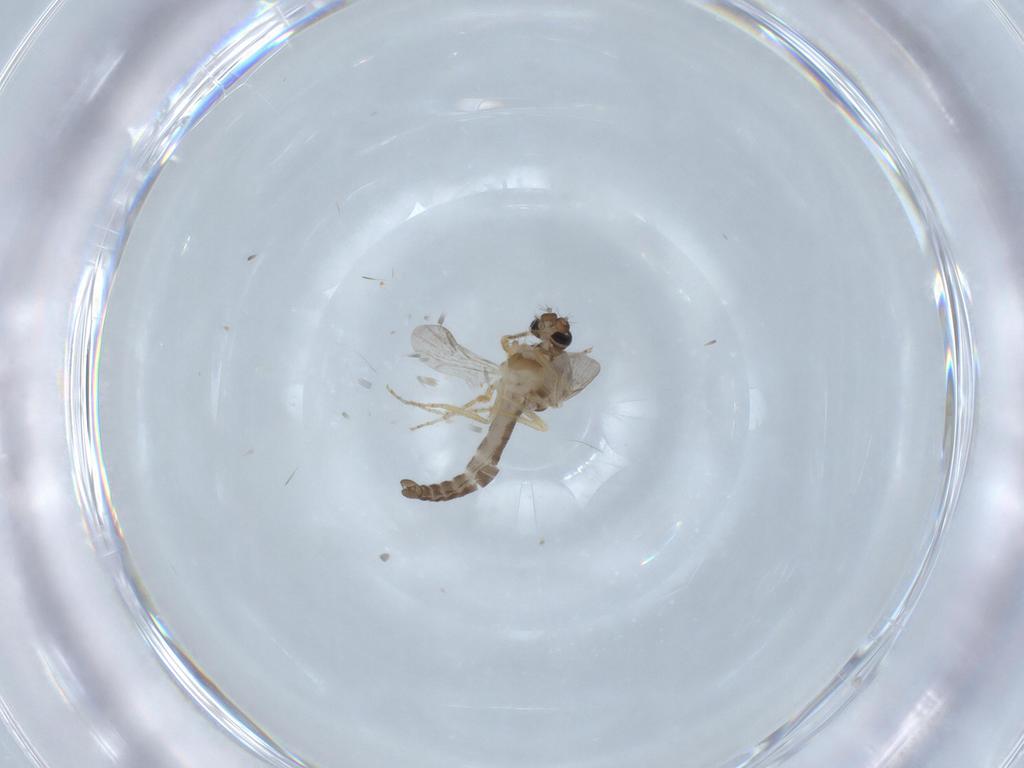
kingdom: Animalia
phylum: Arthropoda
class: Insecta
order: Diptera
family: Ceratopogonidae
